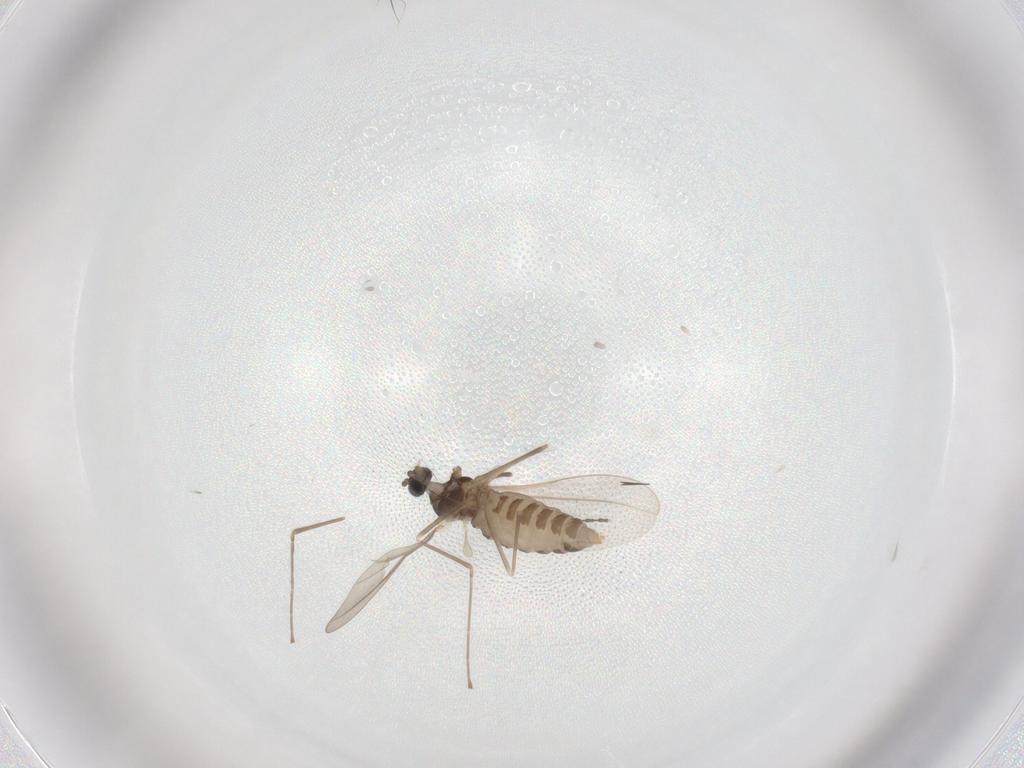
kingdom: Animalia
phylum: Arthropoda
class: Insecta
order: Diptera
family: Cecidomyiidae
